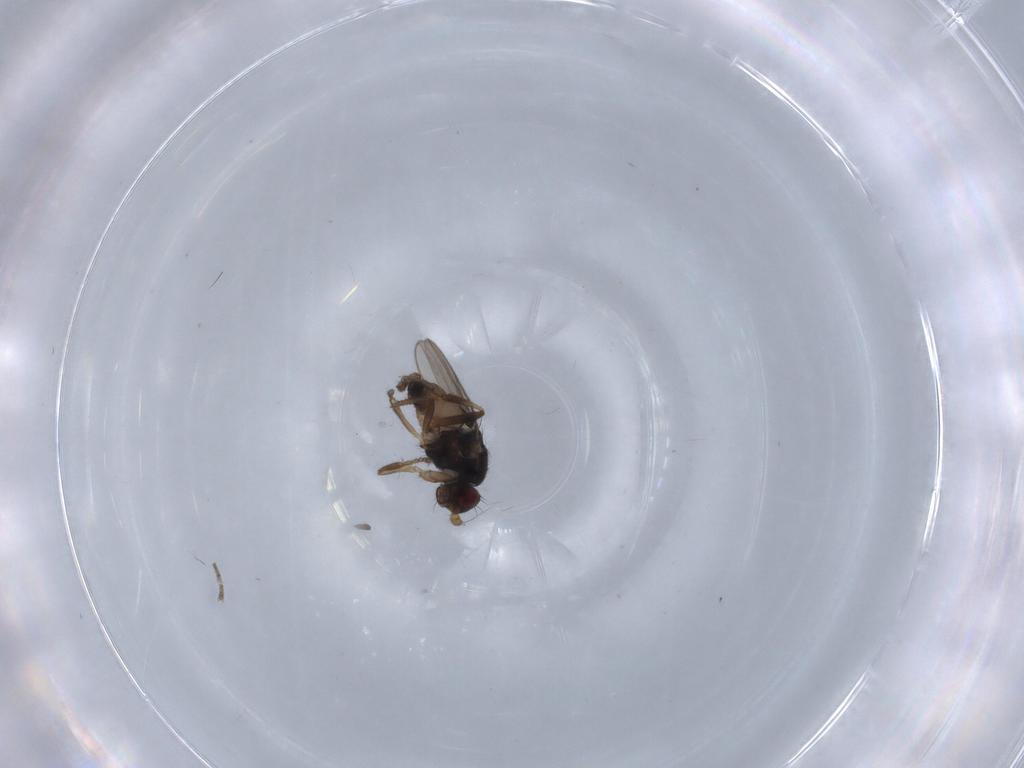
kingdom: Animalia
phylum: Arthropoda
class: Insecta
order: Diptera
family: Sphaeroceridae
